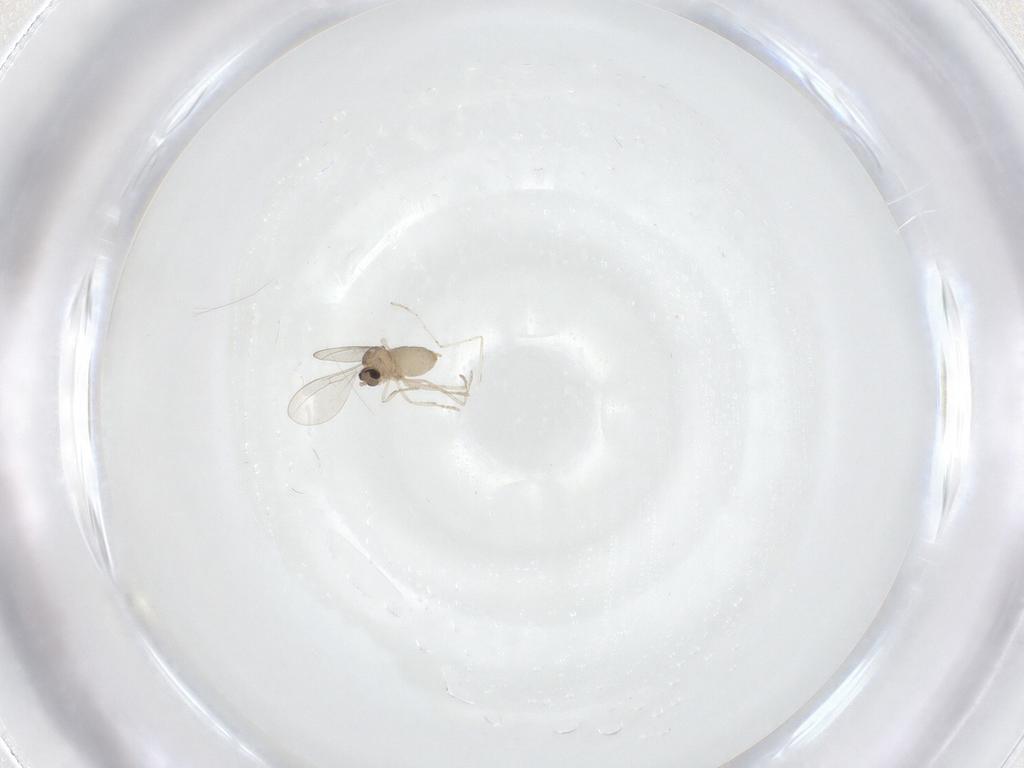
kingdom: Animalia
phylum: Arthropoda
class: Insecta
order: Diptera
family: Cecidomyiidae
